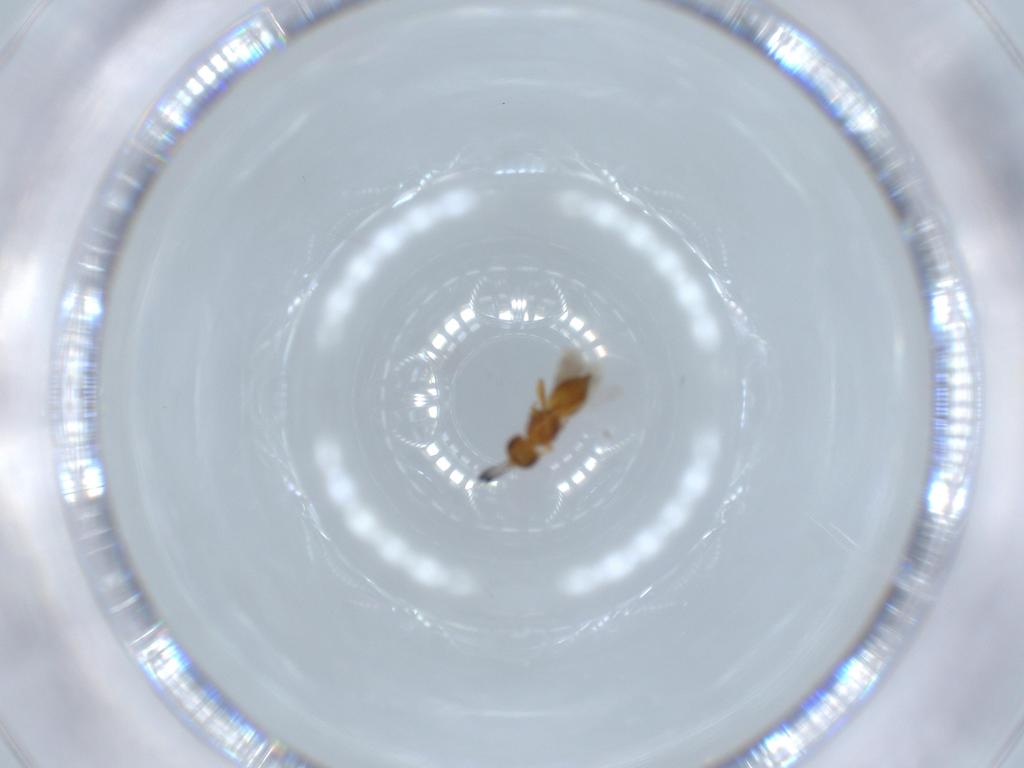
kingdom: Animalia
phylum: Arthropoda
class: Insecta
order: Hymenoptera
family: Ceraphronidae
